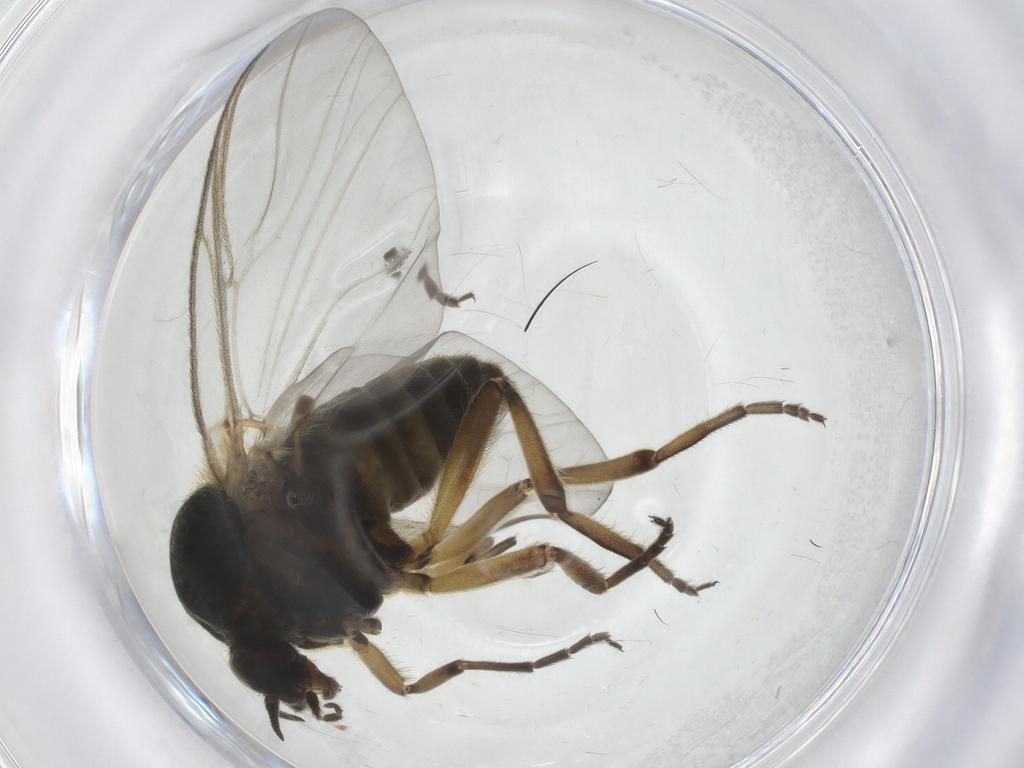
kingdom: Animalia
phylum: Arthropoda
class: Insecta
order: Diptera
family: Simuliidae
